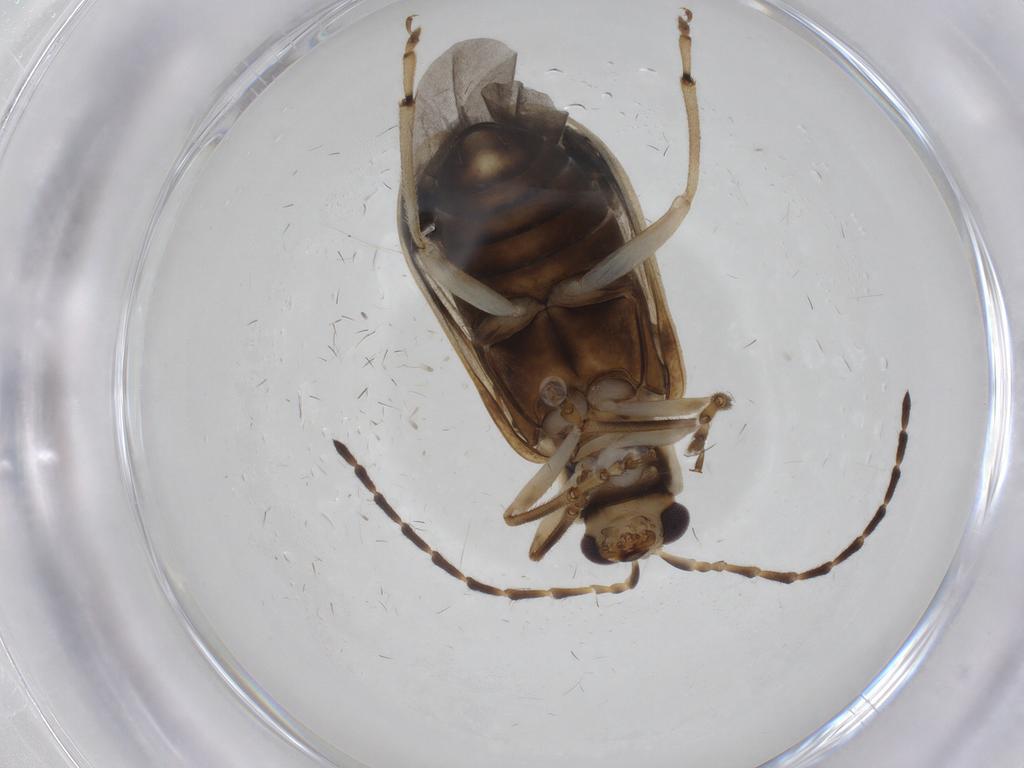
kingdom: Animalia
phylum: Arthropoda
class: Insecta
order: Coleoptera
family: Chrysomelidae
